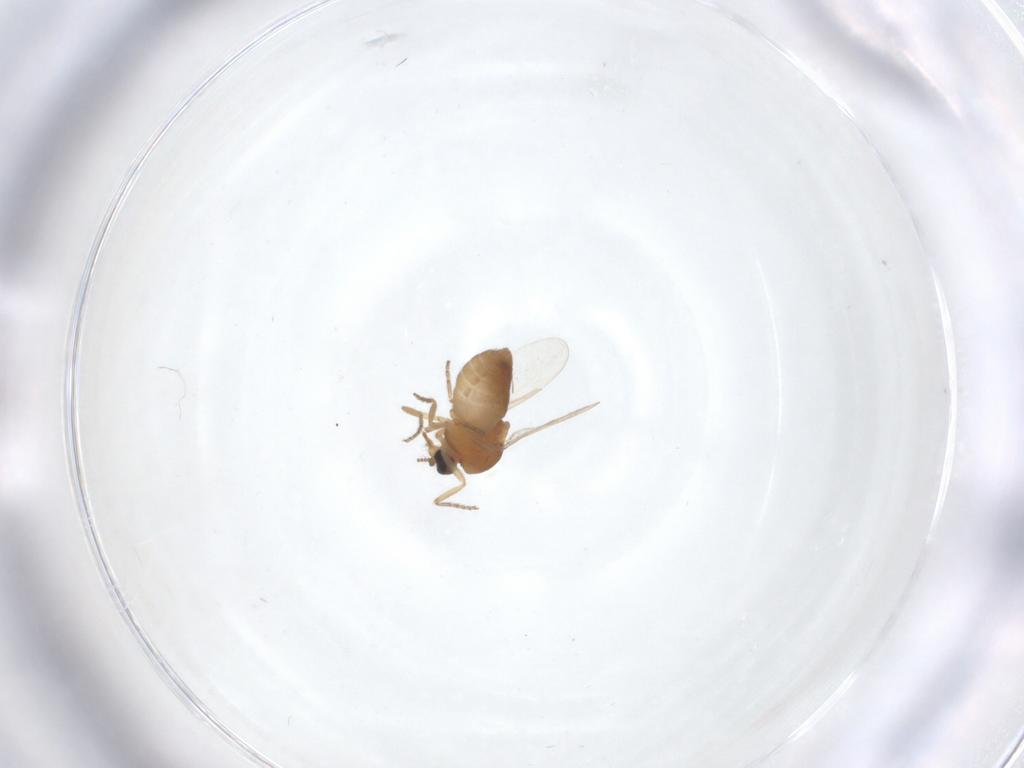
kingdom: Animalia
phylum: Arthropoda
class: Insecta
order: Diptera
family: Ceratopogonidae
